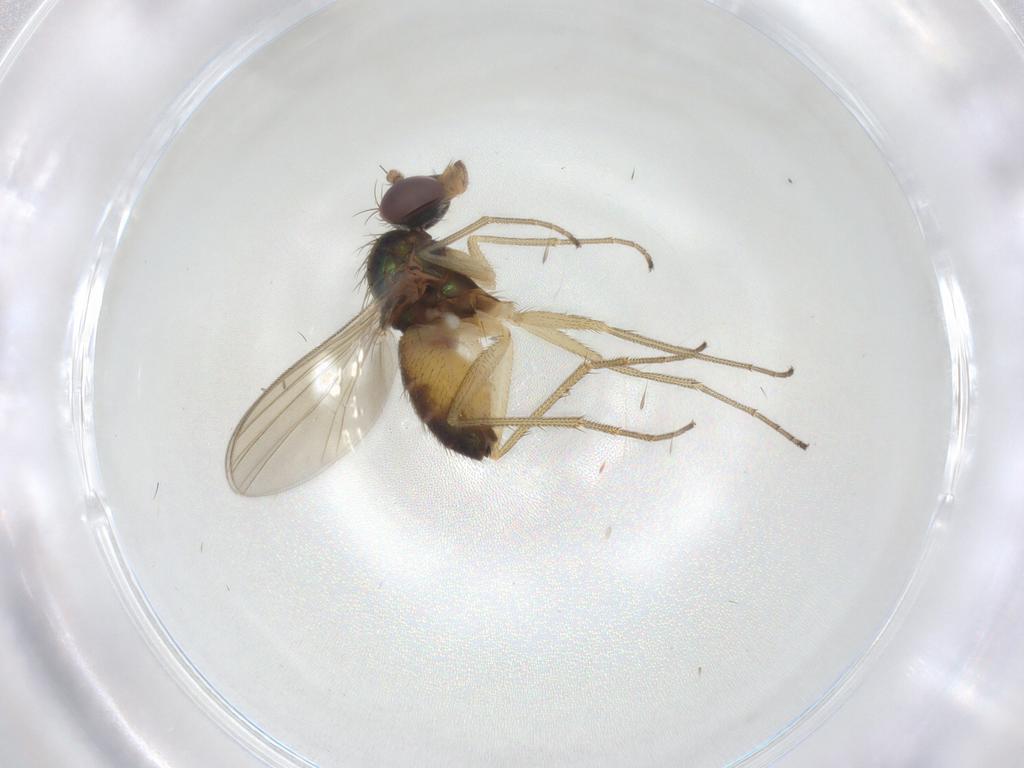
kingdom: Animalia
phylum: Arthropoda
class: Insecta
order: Diptera
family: Dolichopodidae
